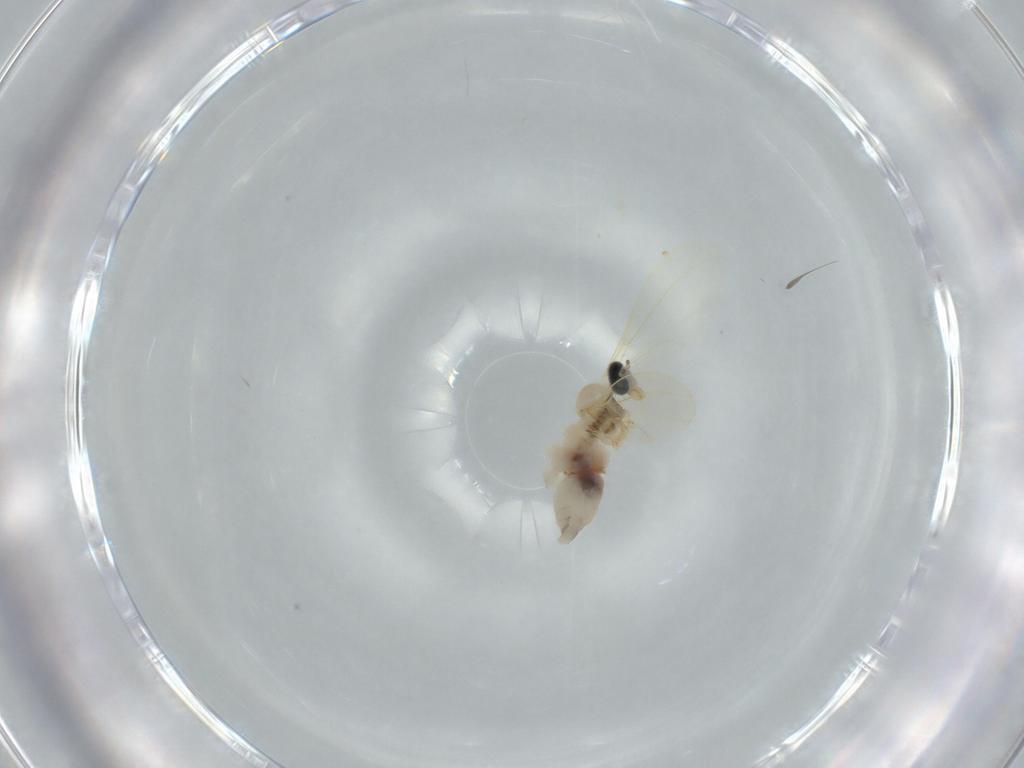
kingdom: Animalia
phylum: Arthropoda
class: Insecta
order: Diptera
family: Cecidomyiidae
